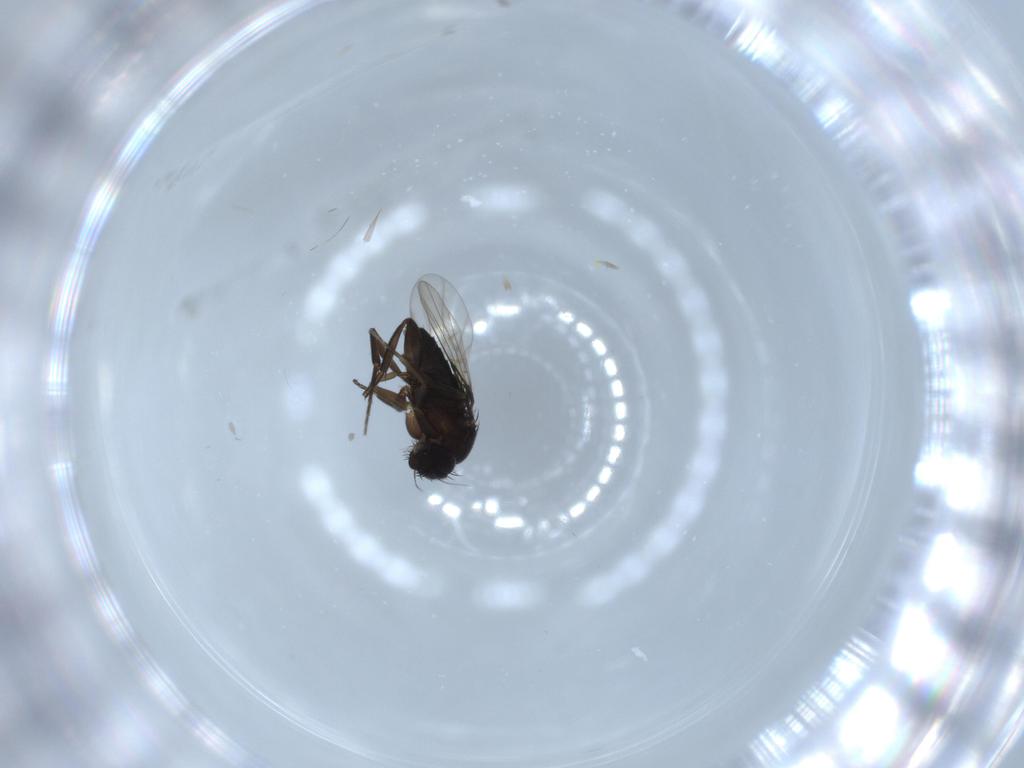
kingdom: Animalia
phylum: Arthropoda
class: Insecta
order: Diptera
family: Phoridae
